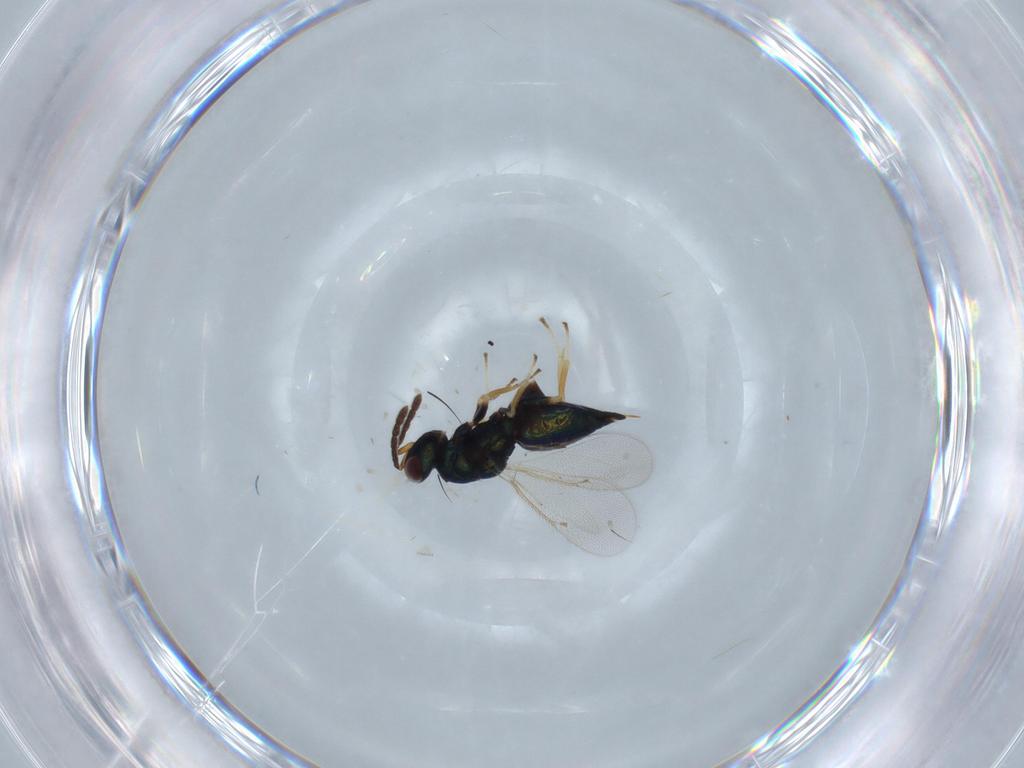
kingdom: Animalia
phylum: Arthropoda
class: Insecta
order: Hymenoptera
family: Eulophidae
